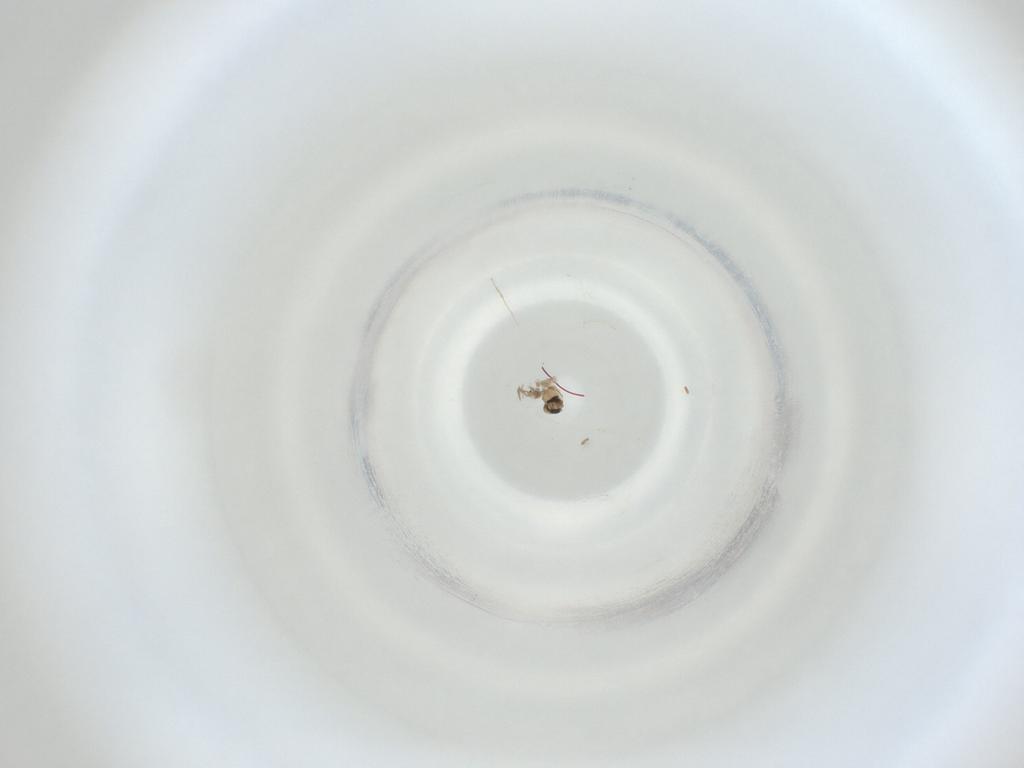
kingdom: Animalia
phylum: Arthropoda
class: Insecta
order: Diptera
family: Cecidomyiidae
